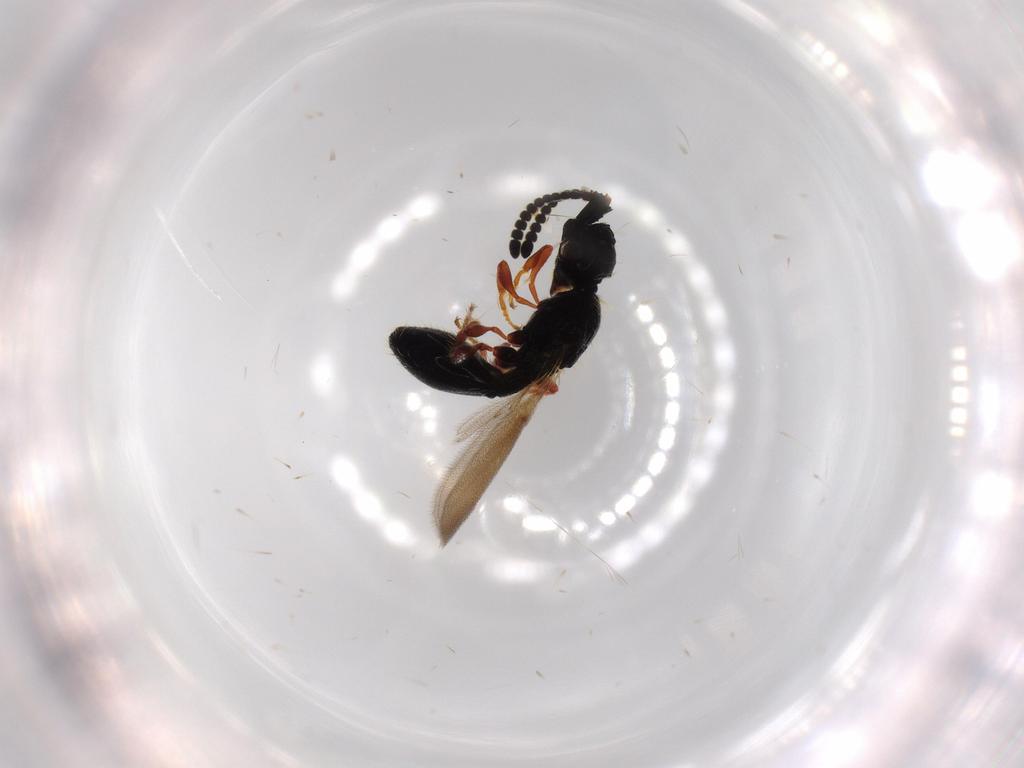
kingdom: Animalia
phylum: Arthropoda
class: Insecta
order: Hymenoptera
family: Diapriidae
